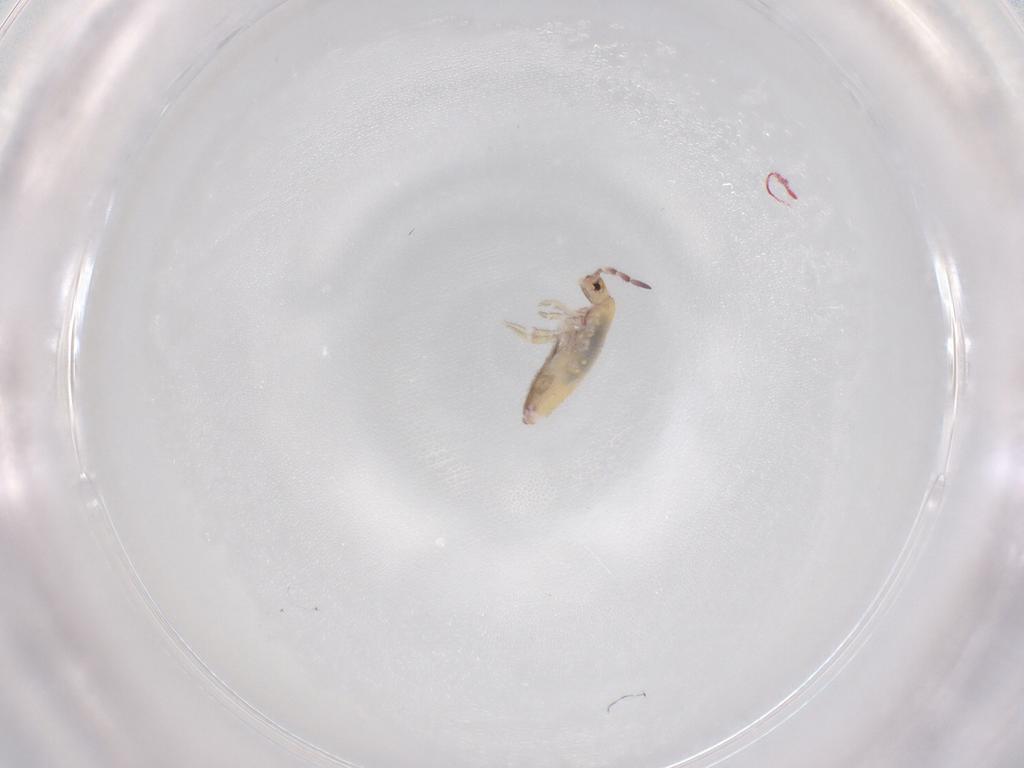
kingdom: Animalia
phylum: Arthropoda
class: Collembola
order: Entomobryomorpha
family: Entomobryidae
